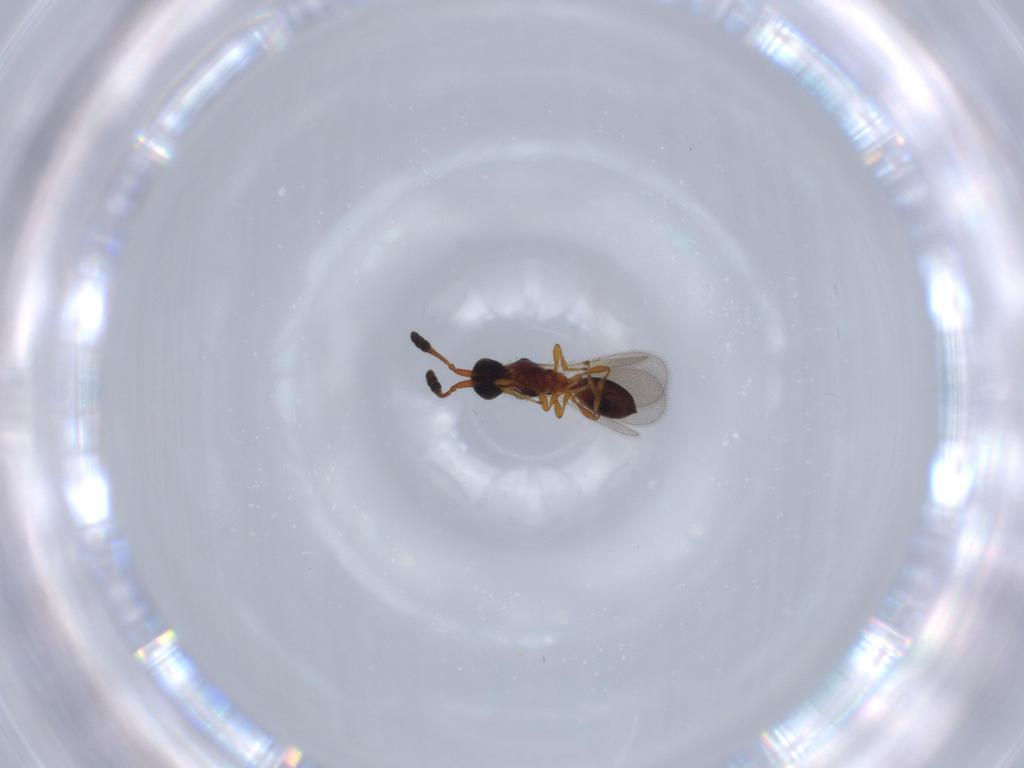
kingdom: Animalia
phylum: Arthropoda
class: Insecta
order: Hymenoptera
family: Diapriidae
